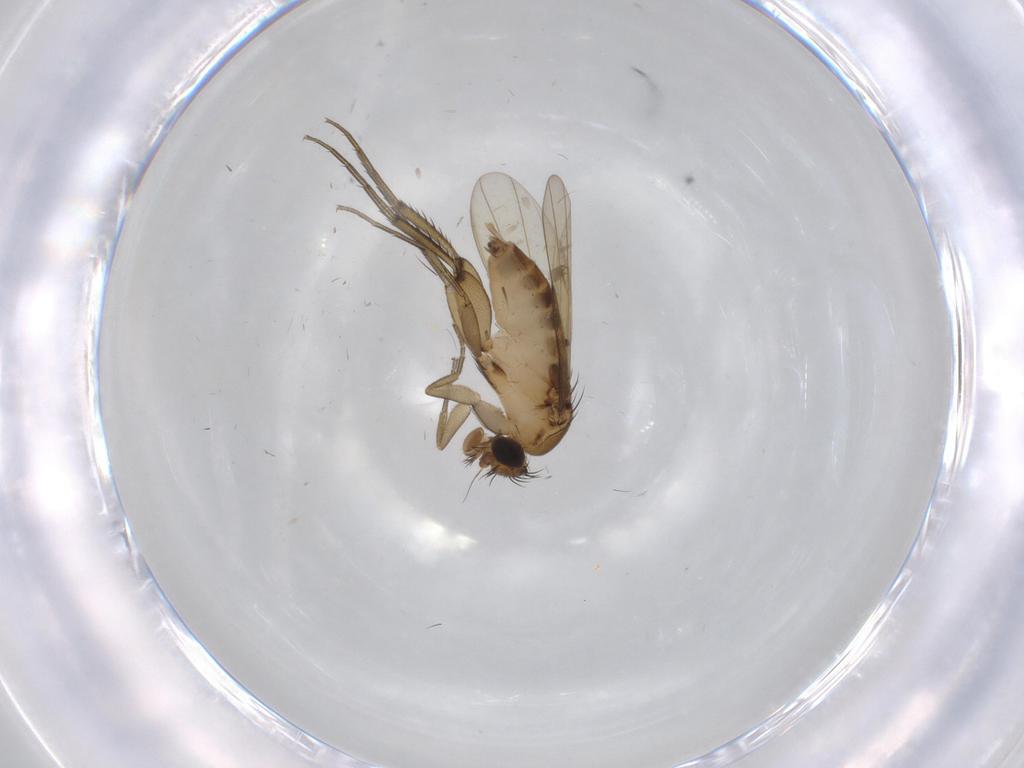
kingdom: Animalia
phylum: Arthropoda
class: Insecta
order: Diptera
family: Phoridae
